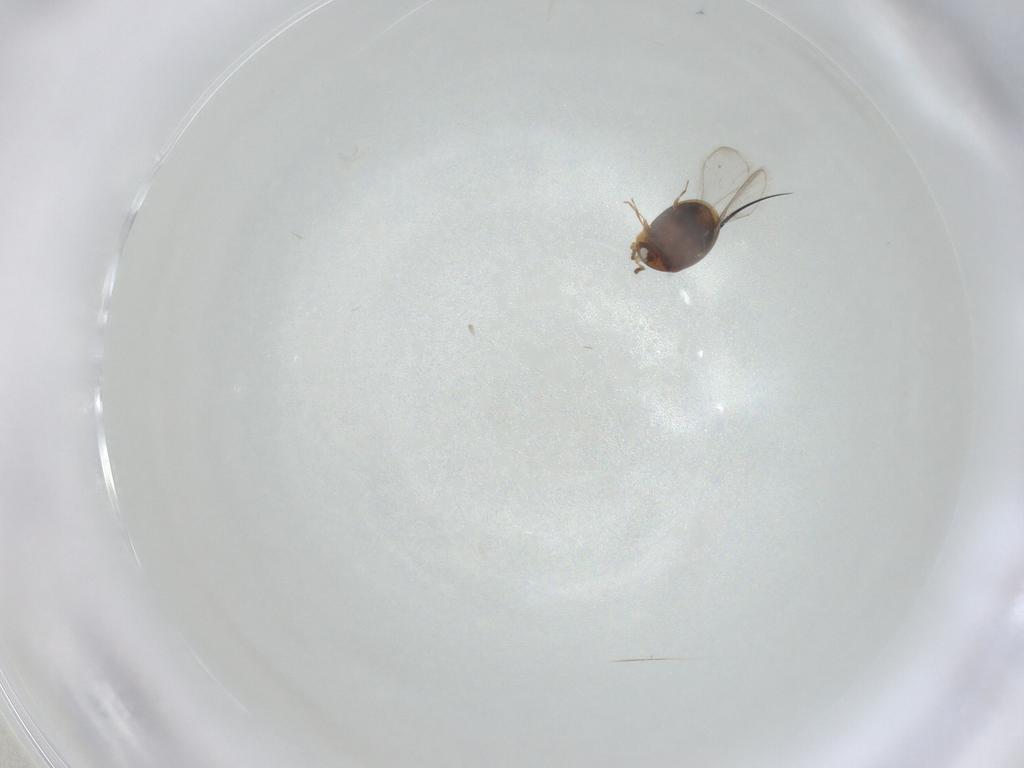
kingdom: Animalia
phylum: Arthropoda
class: Insecta
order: Coleoptera
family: Corylophidae
